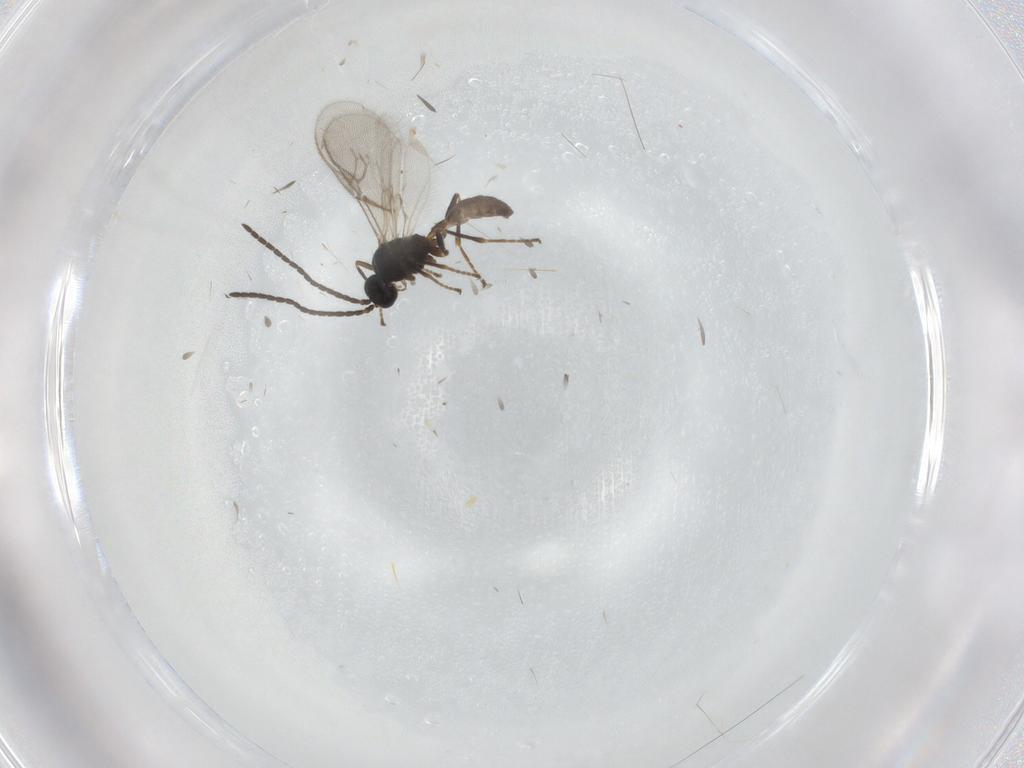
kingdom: Animalia
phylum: Arthropoda
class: Insecta
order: Hymenoptera
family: Braconidae
